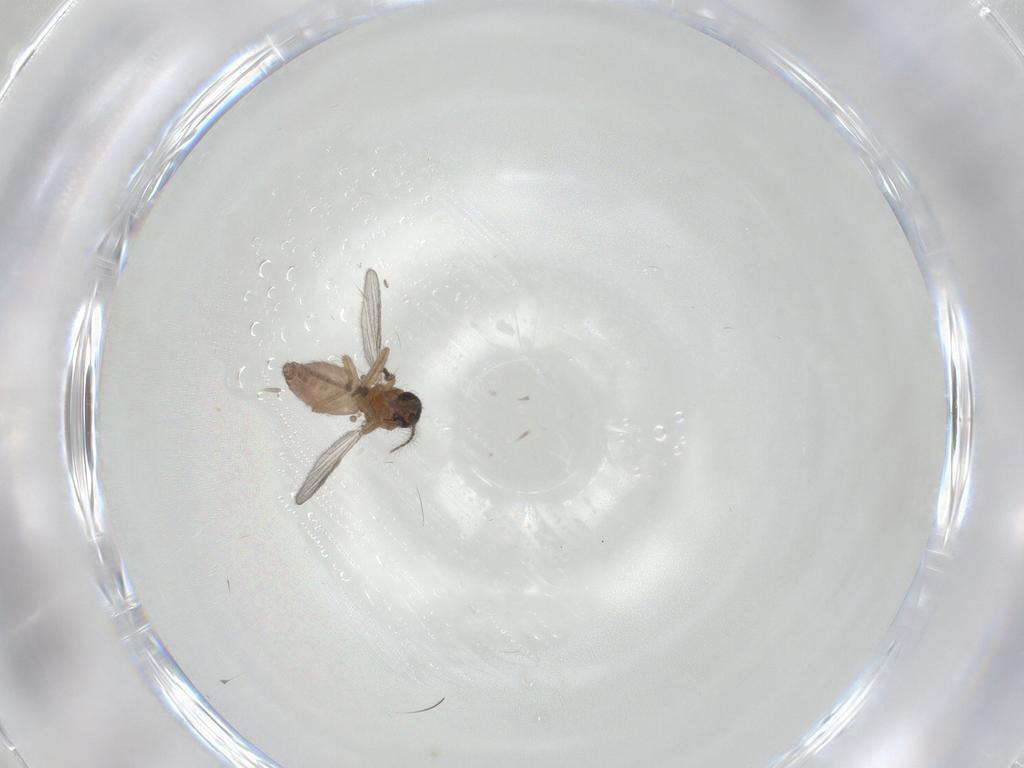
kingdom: Animalia
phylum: Arthropoda
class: Insecta
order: Diptera
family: Ceratopogonidae
